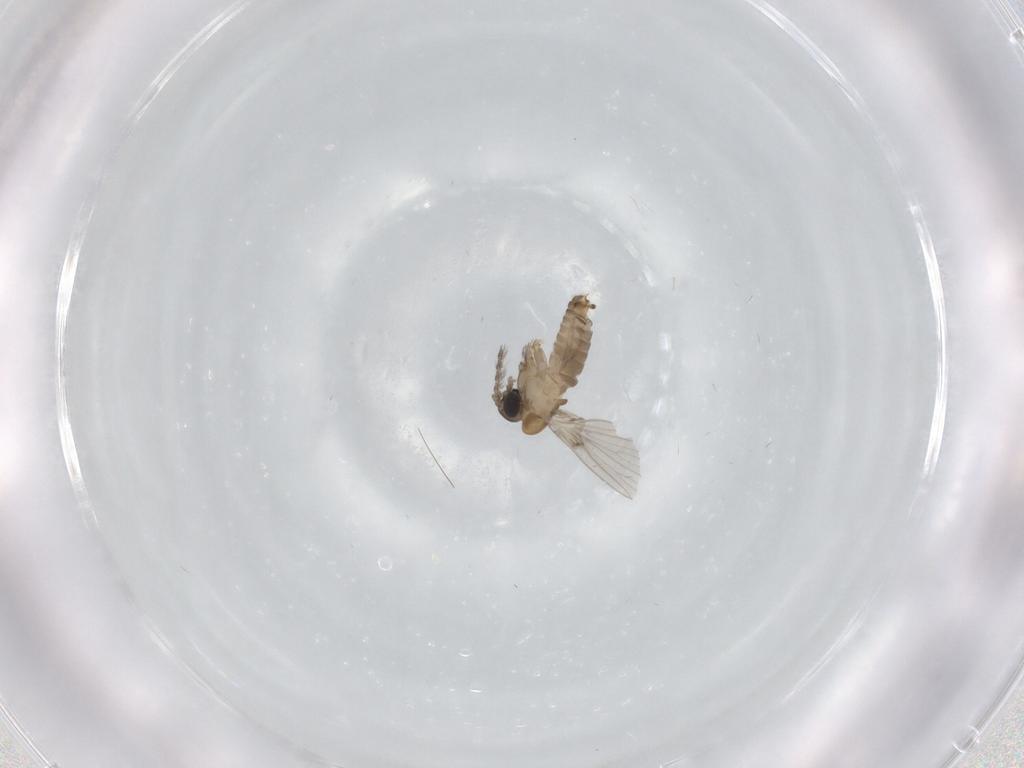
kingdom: Animalia
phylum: Arthropoda
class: Insecta
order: Diptera
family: Psychodidae
